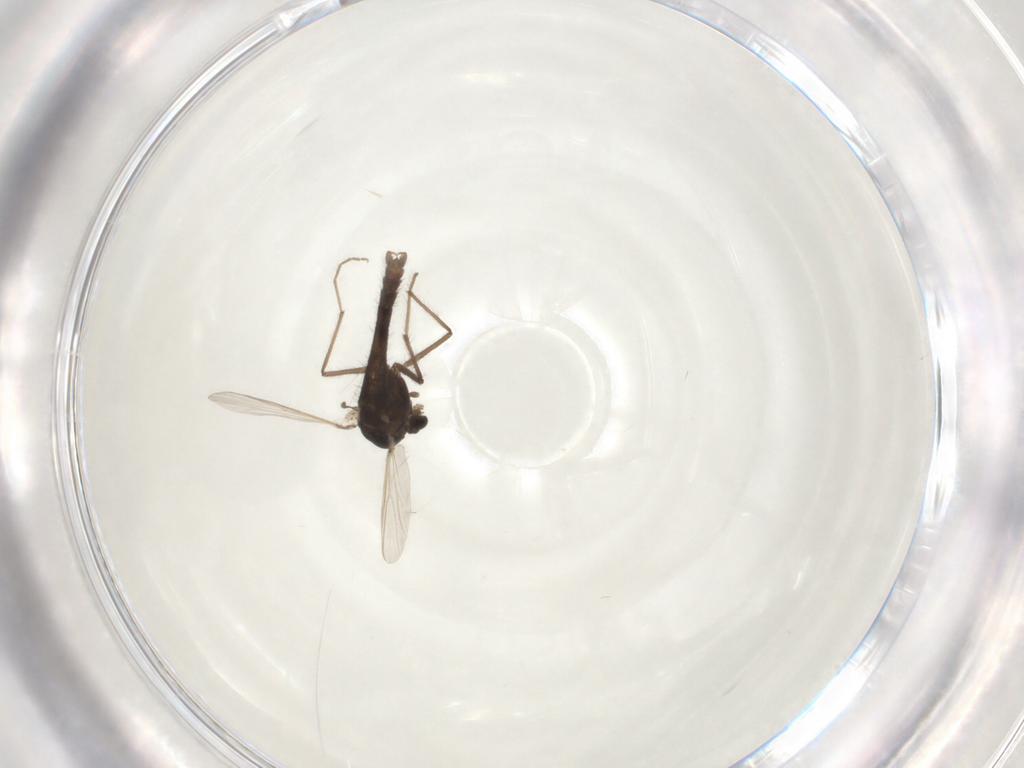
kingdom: Animalia
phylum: Arthropoda
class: Insecta
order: Diptera
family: Chironomidae
